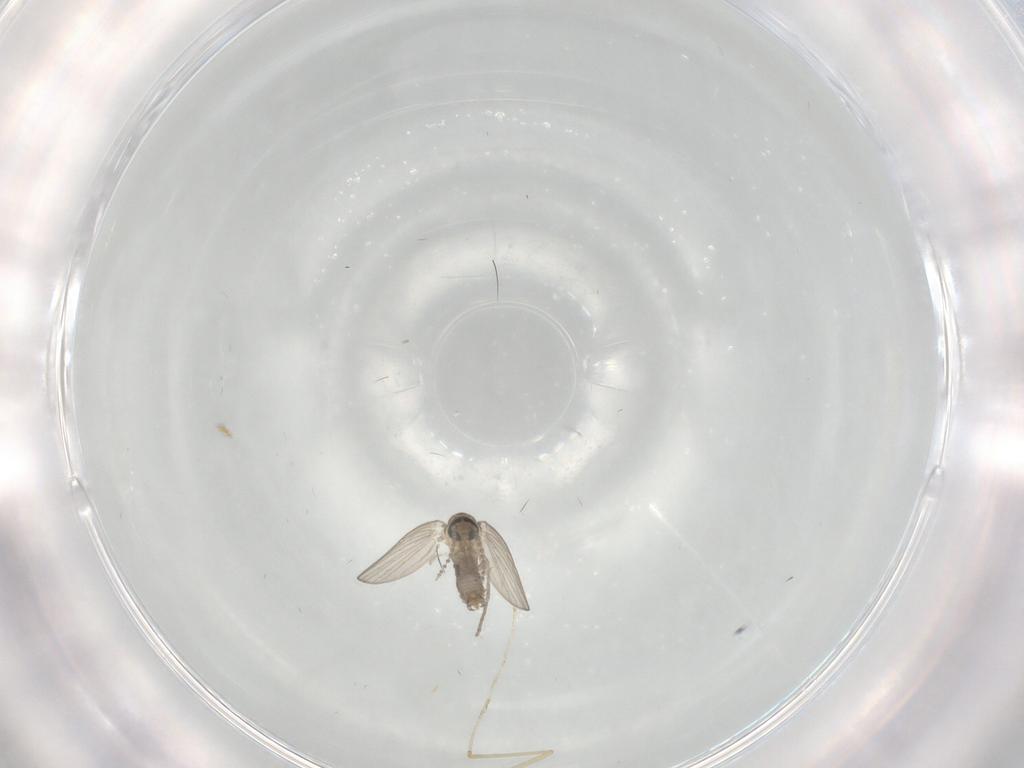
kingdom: Animalia
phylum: Arthropoda
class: Insecta
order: Diptera
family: Psychodidae
